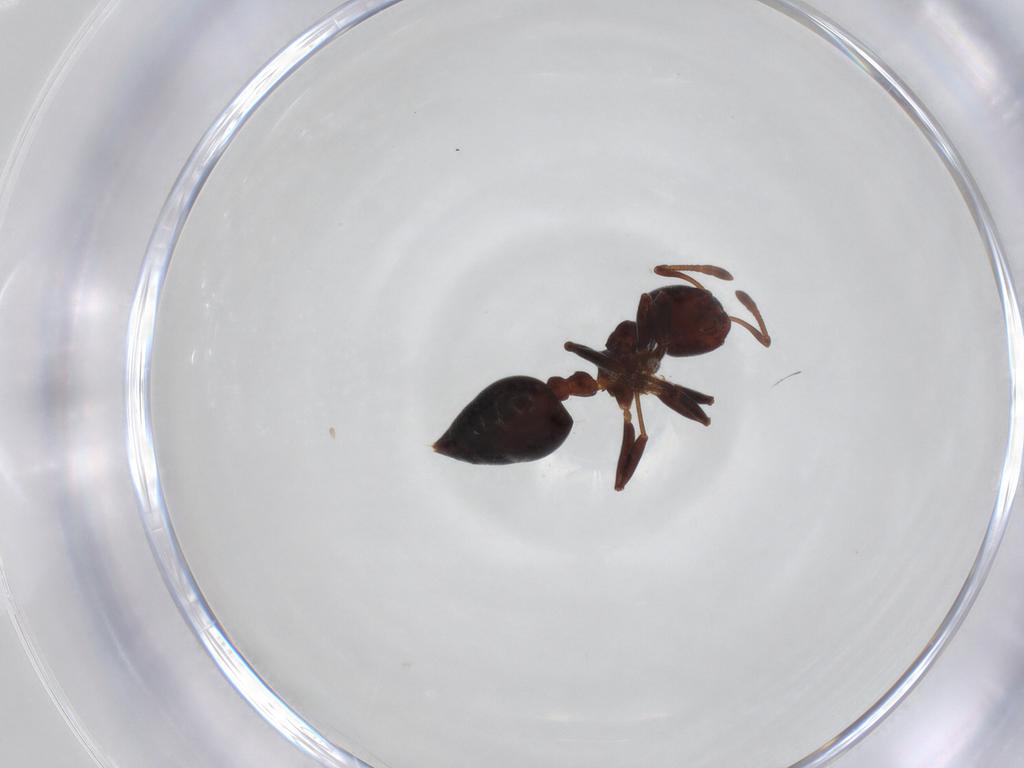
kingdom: Animalia
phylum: Arthropoda
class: Insecta
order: Hymenoptera
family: Formicidae
